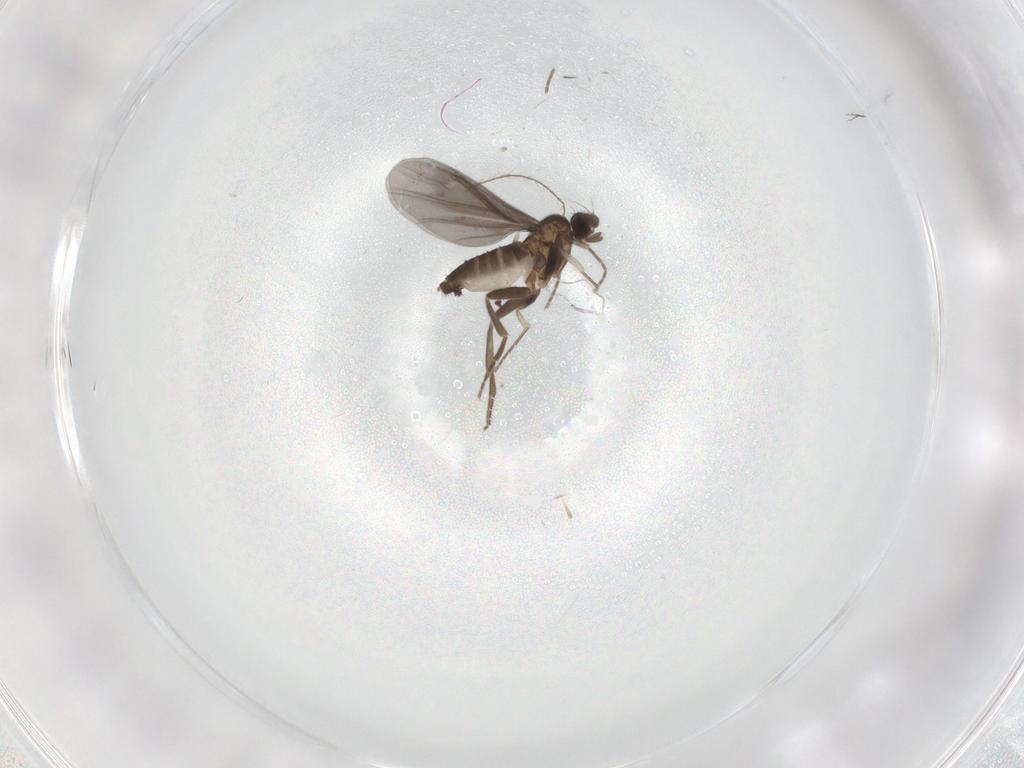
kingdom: Animalia
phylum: Arthropoda
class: Insecta
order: Diptera
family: Phoridae
